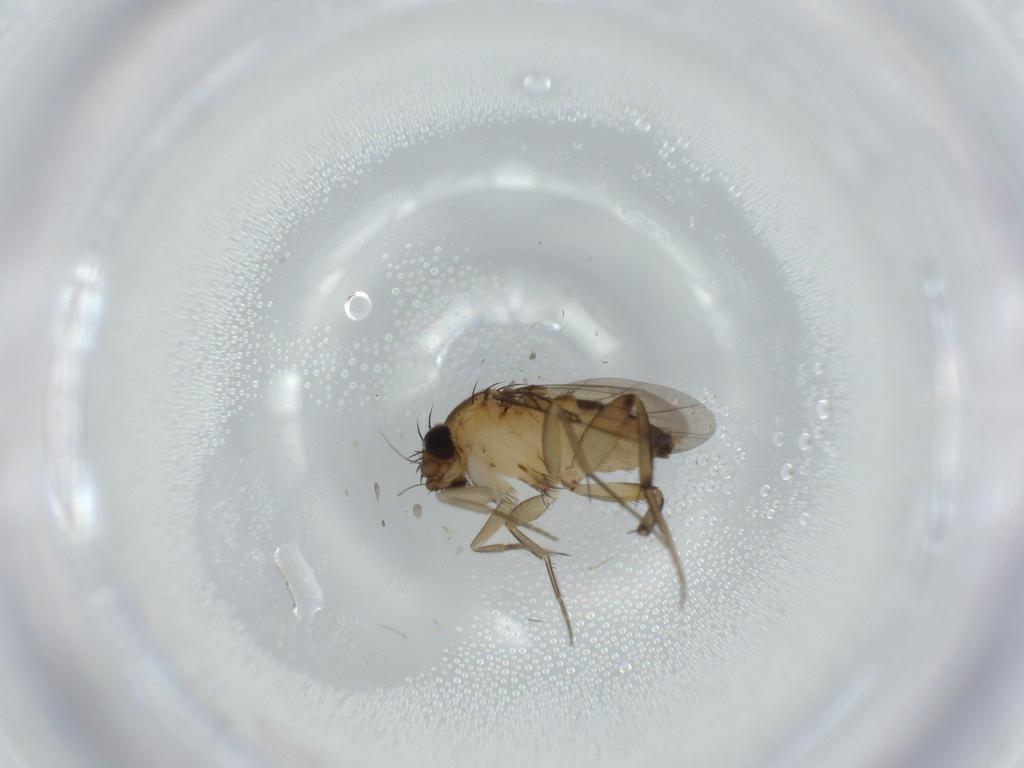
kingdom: Animalia
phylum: Arthropoda
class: Insecta
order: Diptera
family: Phoridae
